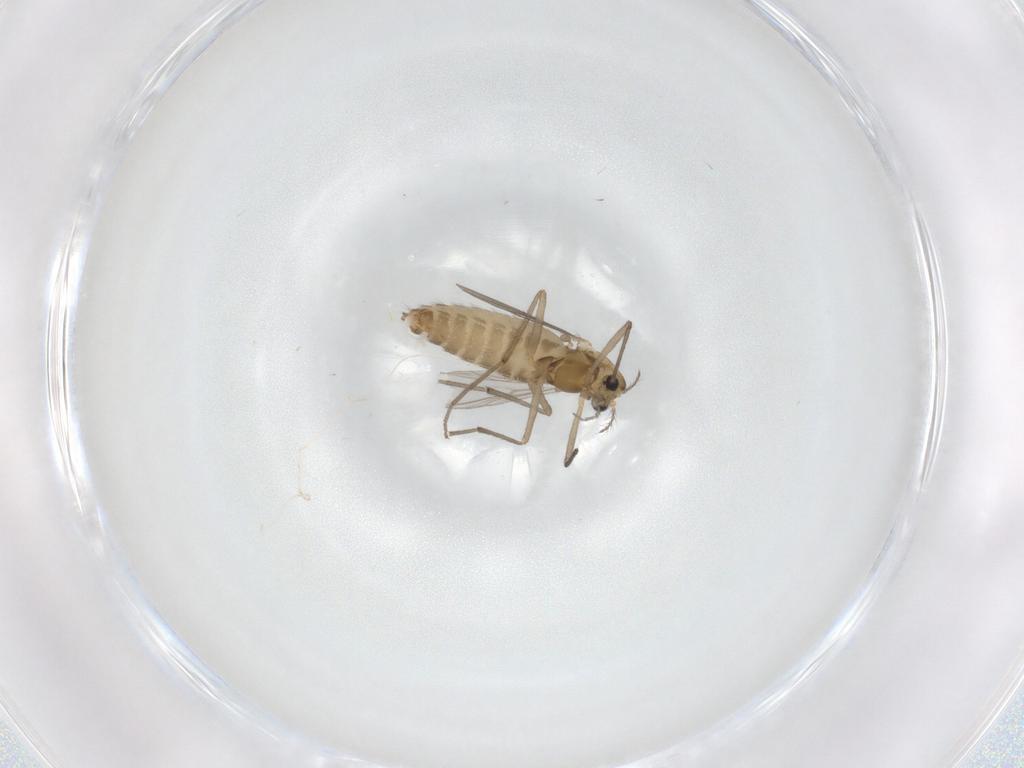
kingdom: Animalia
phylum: Arthropoda
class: Insecta
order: Diptera
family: Chironomidae
